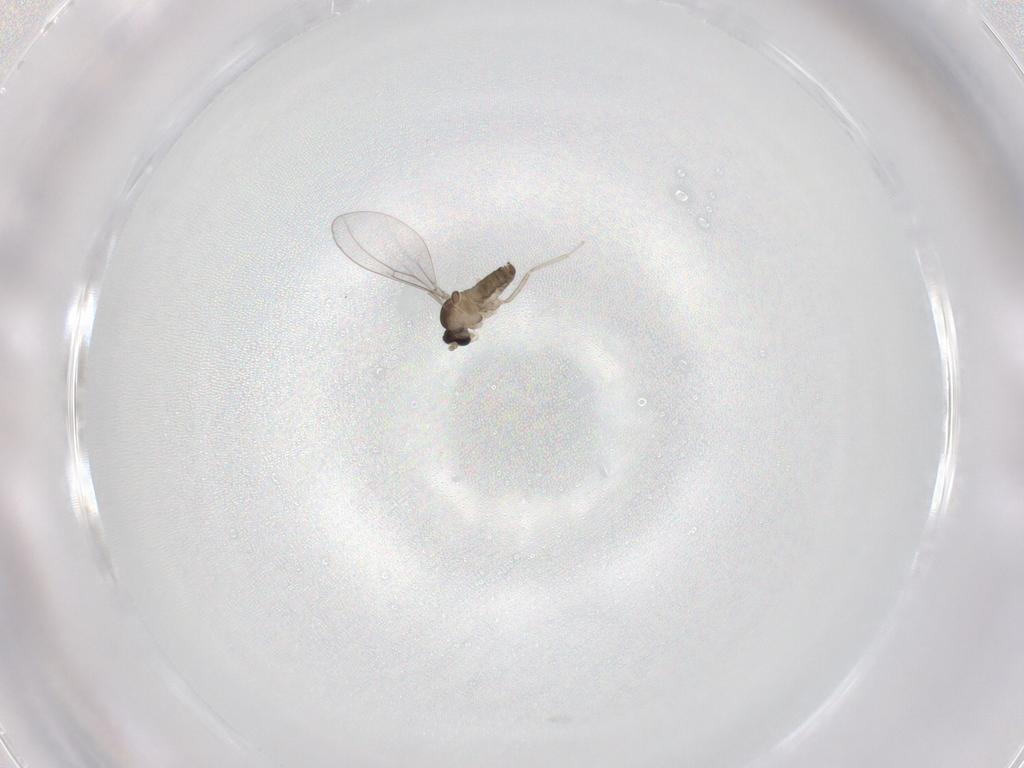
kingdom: Animalia
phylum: Arthropoda
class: Insecta
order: Diptera
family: Cecidomyiidae
